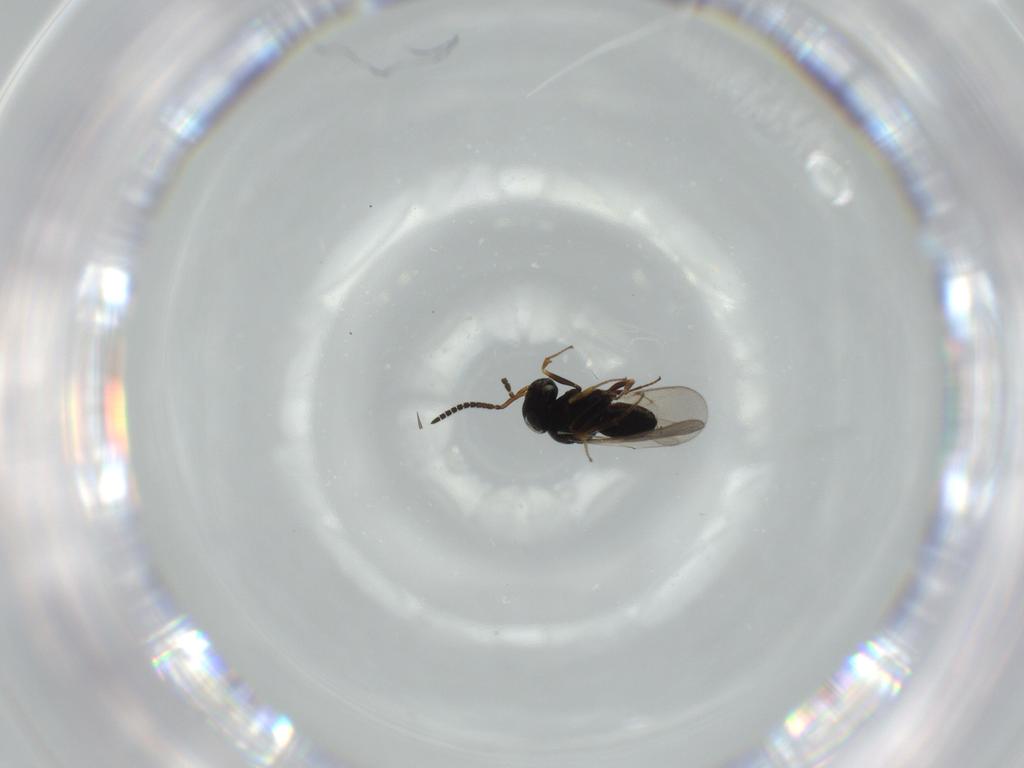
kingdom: Animalia
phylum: Arthropoda
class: Insecta
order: Hymenoptera
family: Scelionidae
